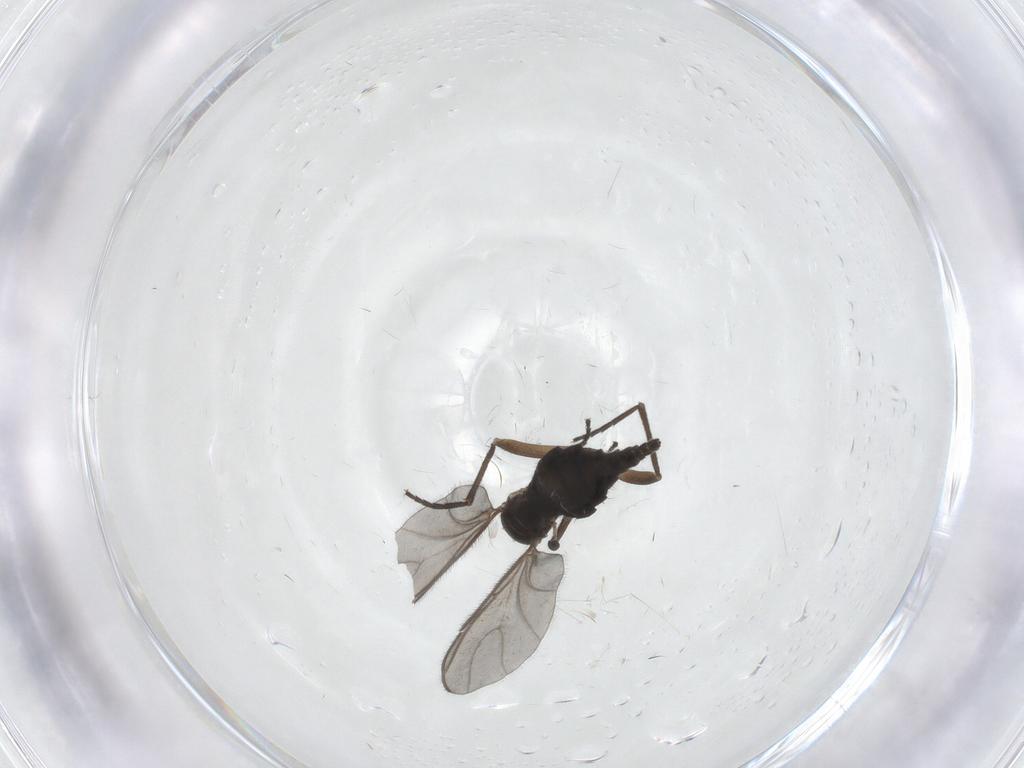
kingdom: Animalia
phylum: Arthropoda
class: Insecta
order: Diptera
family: Sciaridae
